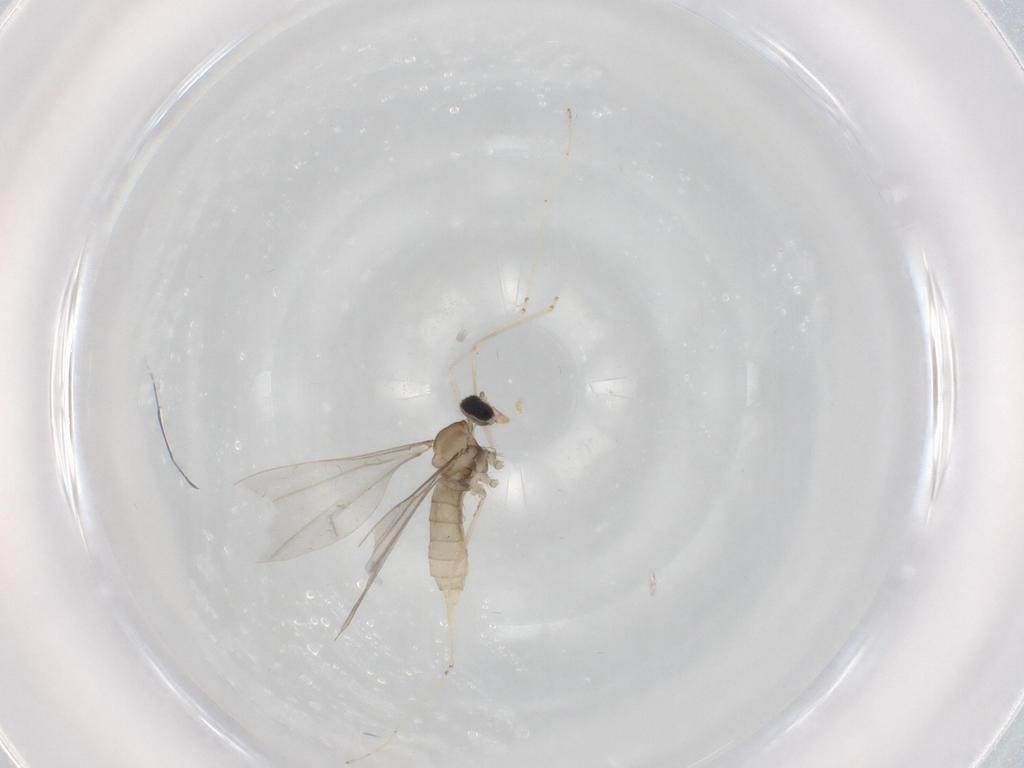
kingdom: Animalia
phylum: Arthropoda
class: Insecta
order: Diptera
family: Cecidomyiidae
